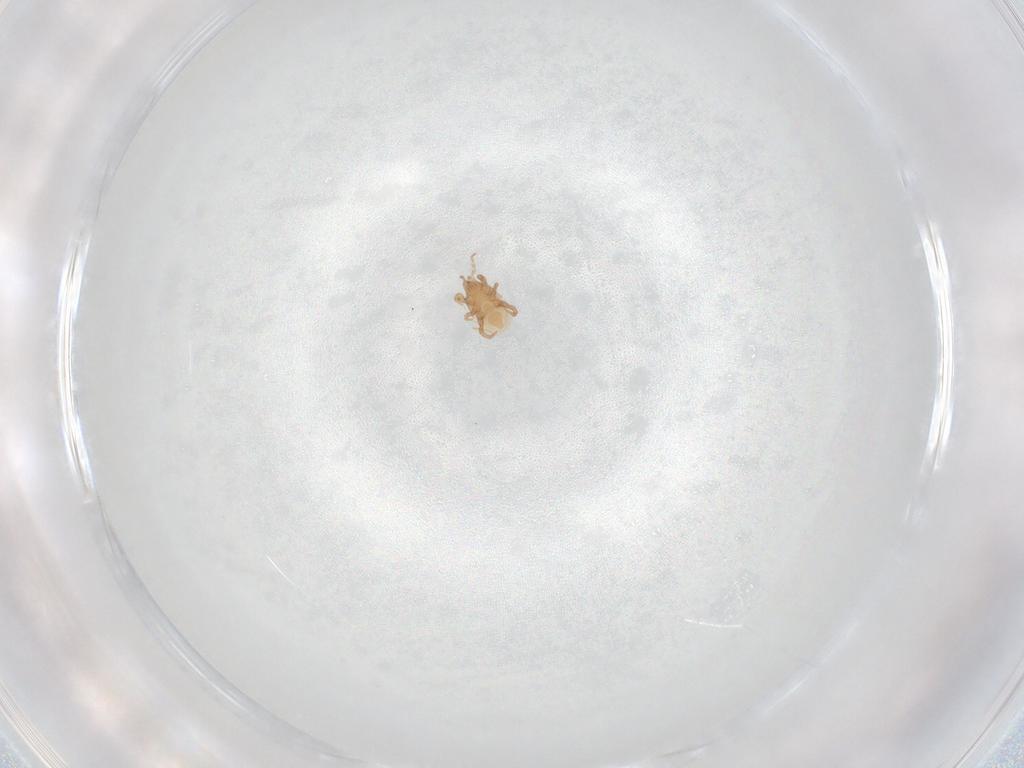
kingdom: Animalia
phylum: Arthropoda
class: Arachnida
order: Mesostigmata
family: Macrochelidae
